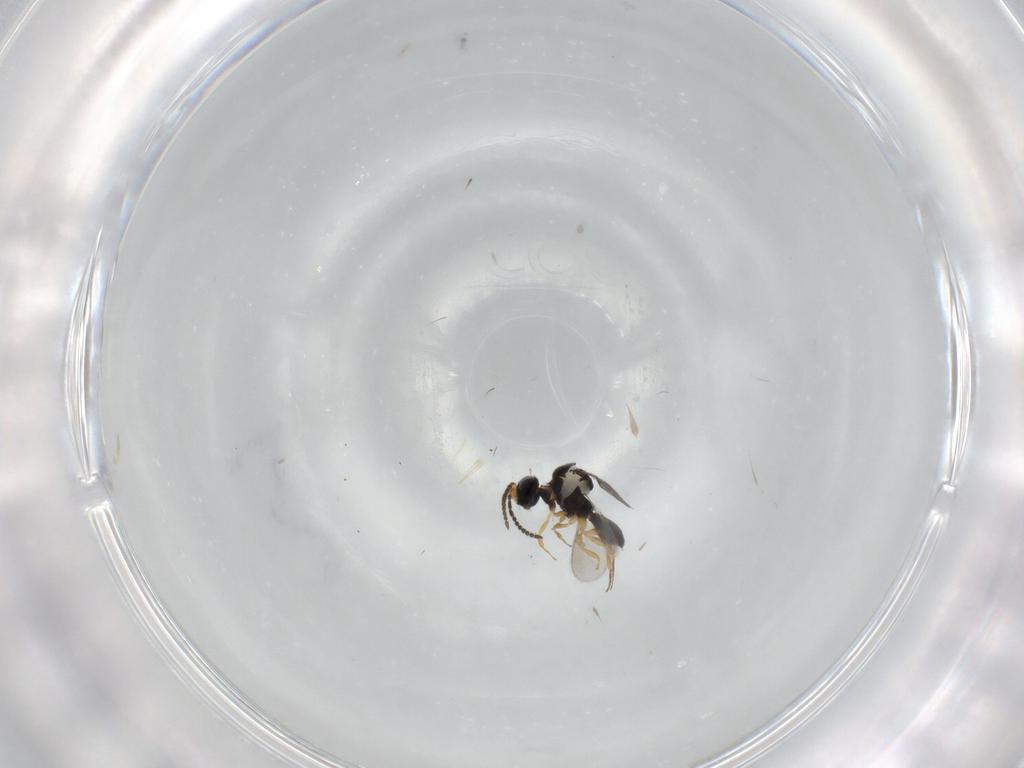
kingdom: Animalia
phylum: Arthropoda
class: Insecta
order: Hymenoptera
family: Scelionidae
